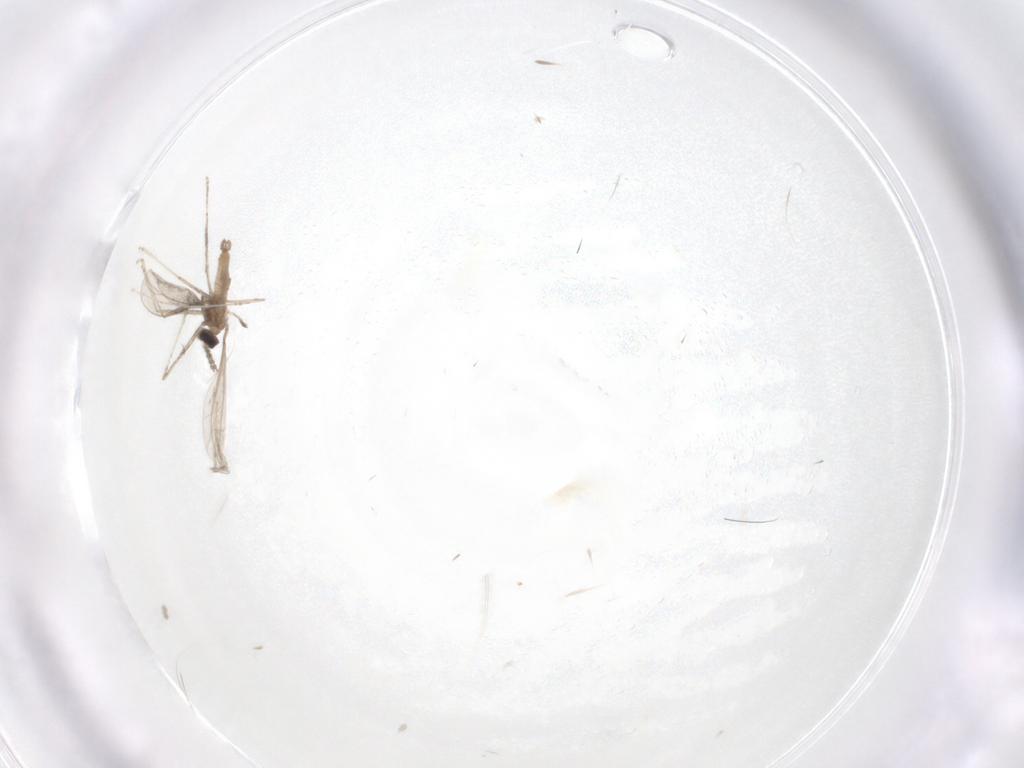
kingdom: Animalia
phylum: Arthropoda
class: Insecta
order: Diptera
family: Cecidomyiidae
